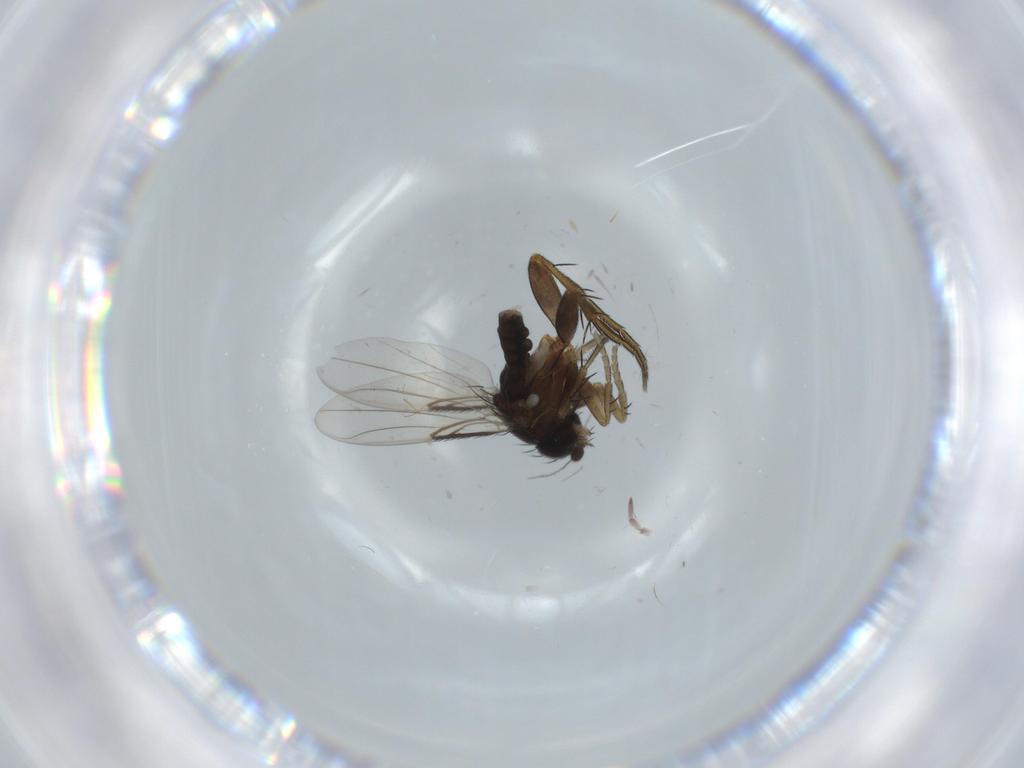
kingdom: Animalia
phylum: Arthropoda
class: Insecta
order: Diptera
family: Phoridae
